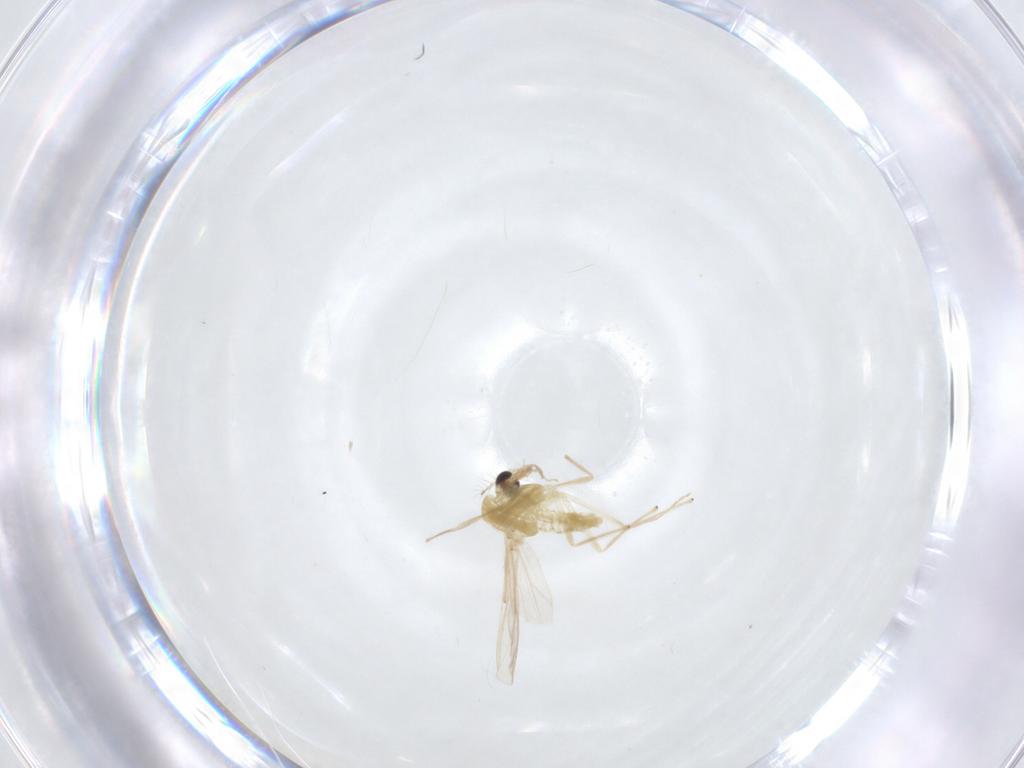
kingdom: Animalia
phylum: Arthropoda
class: Insecta
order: Diptera
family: Chironomidae
